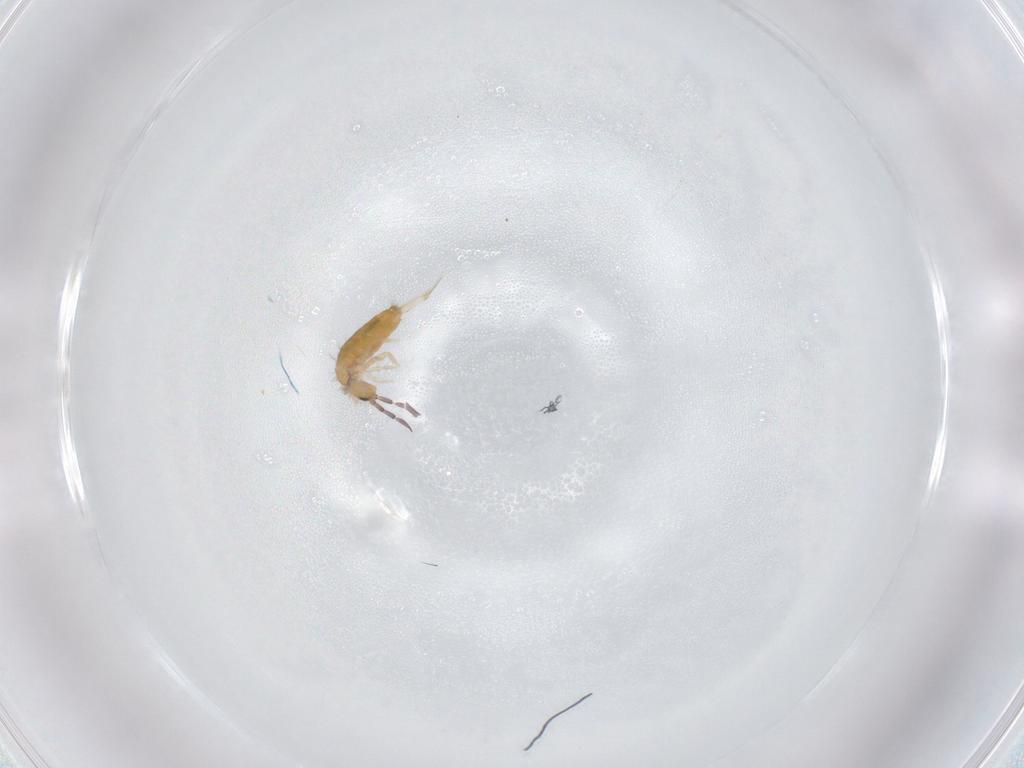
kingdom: Animalia
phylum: Arthropoda
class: Collembola
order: Entomobryomorpha
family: Entomobryidae
